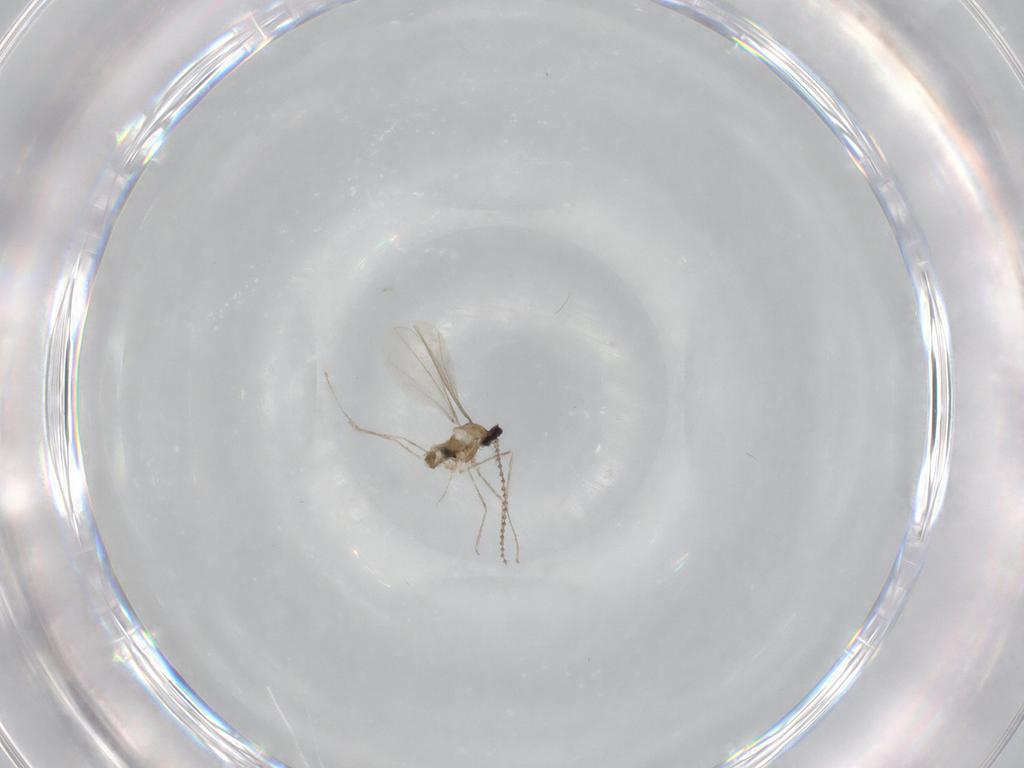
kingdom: Animalia
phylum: Arthropoda
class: Insecta
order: Diptera
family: Cecidomyiidae
